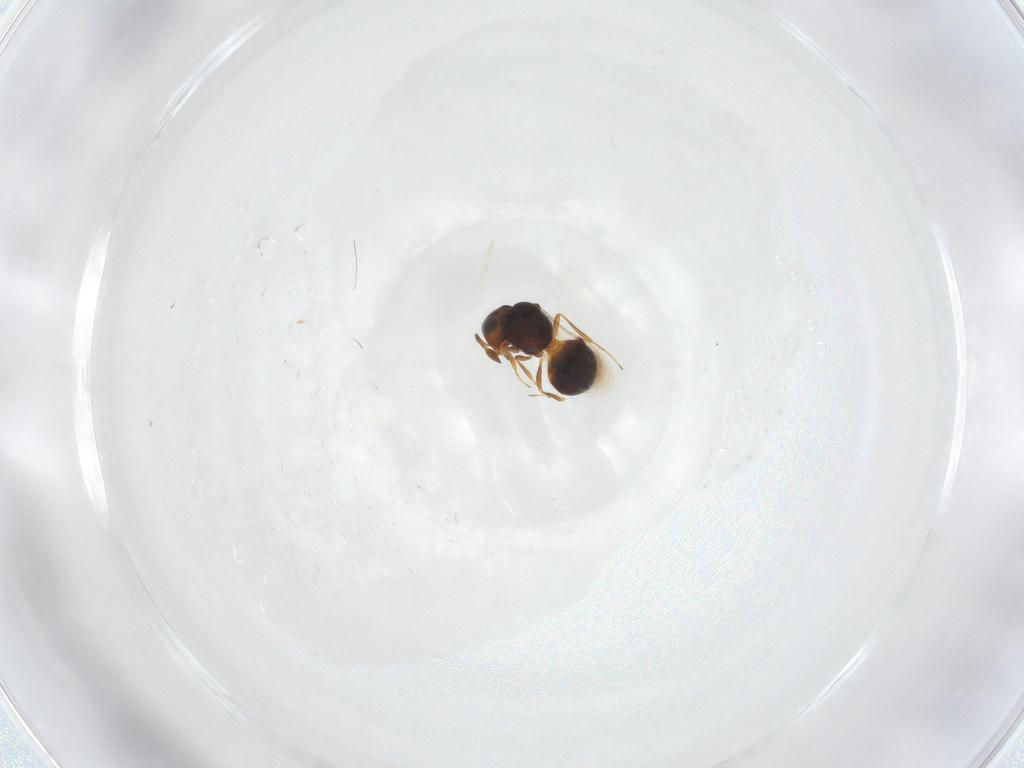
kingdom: Animalia
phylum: Arthropoda
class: Insecta
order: Hymenoptera
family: Scelionidae
